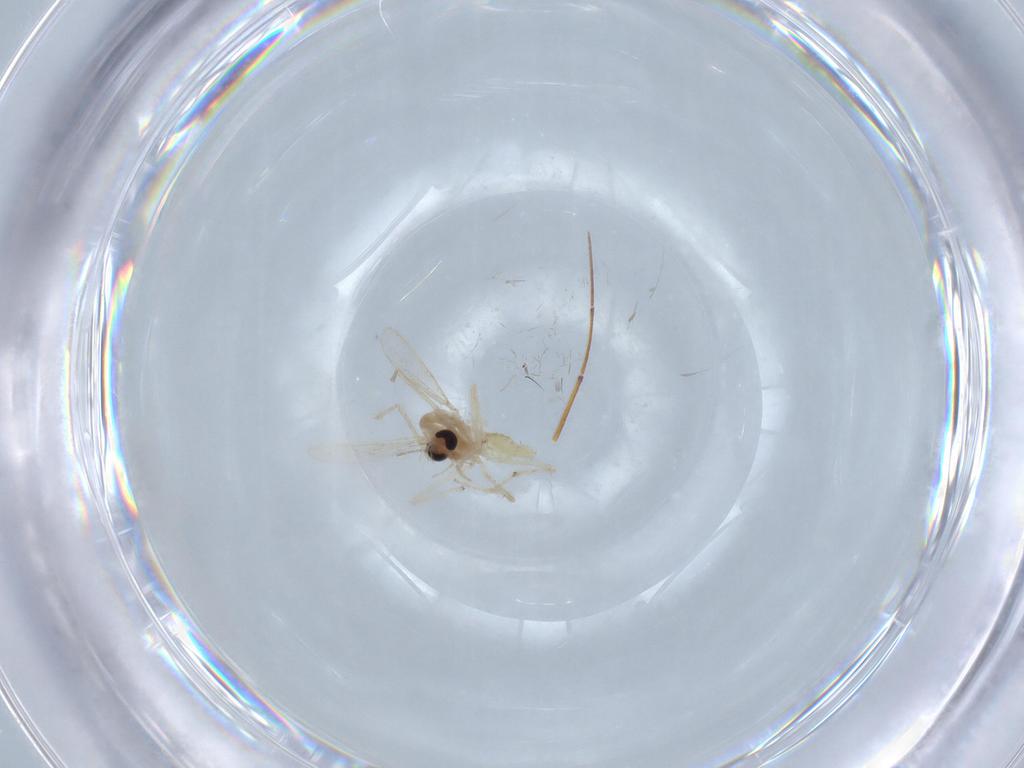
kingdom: Animalia
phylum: Arthropoda
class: Insecta
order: Diptera
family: Chironomidae
